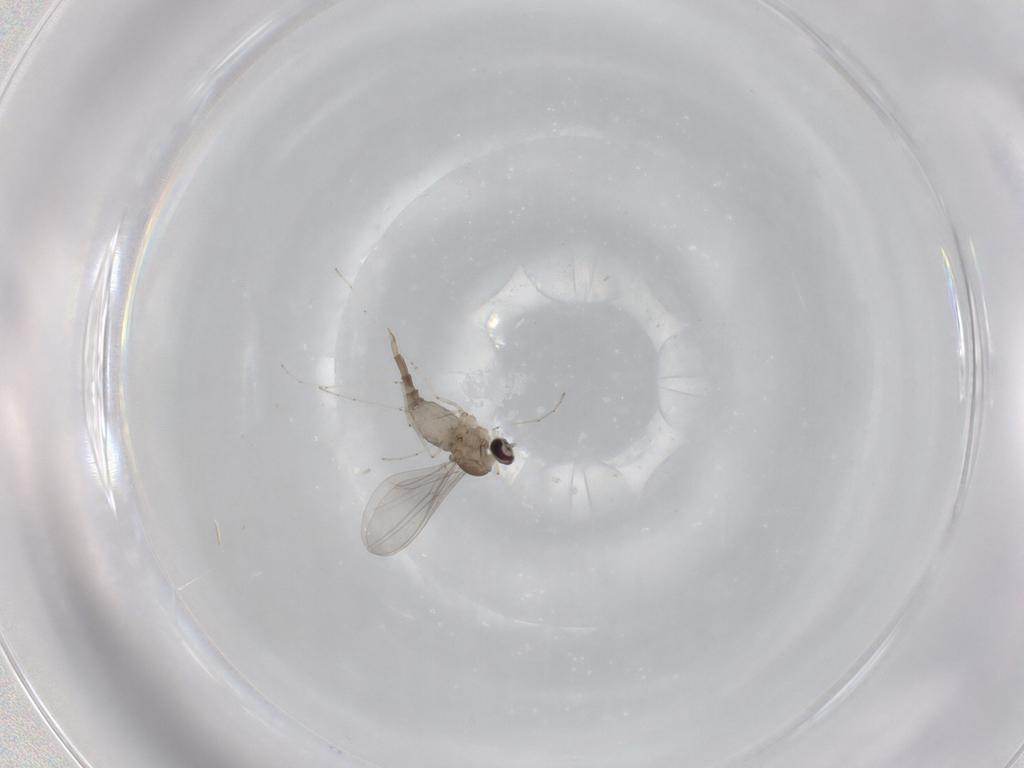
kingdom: Animalia
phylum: Arthropoda
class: Insecta
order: Diptera
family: Cecidomyiidae
